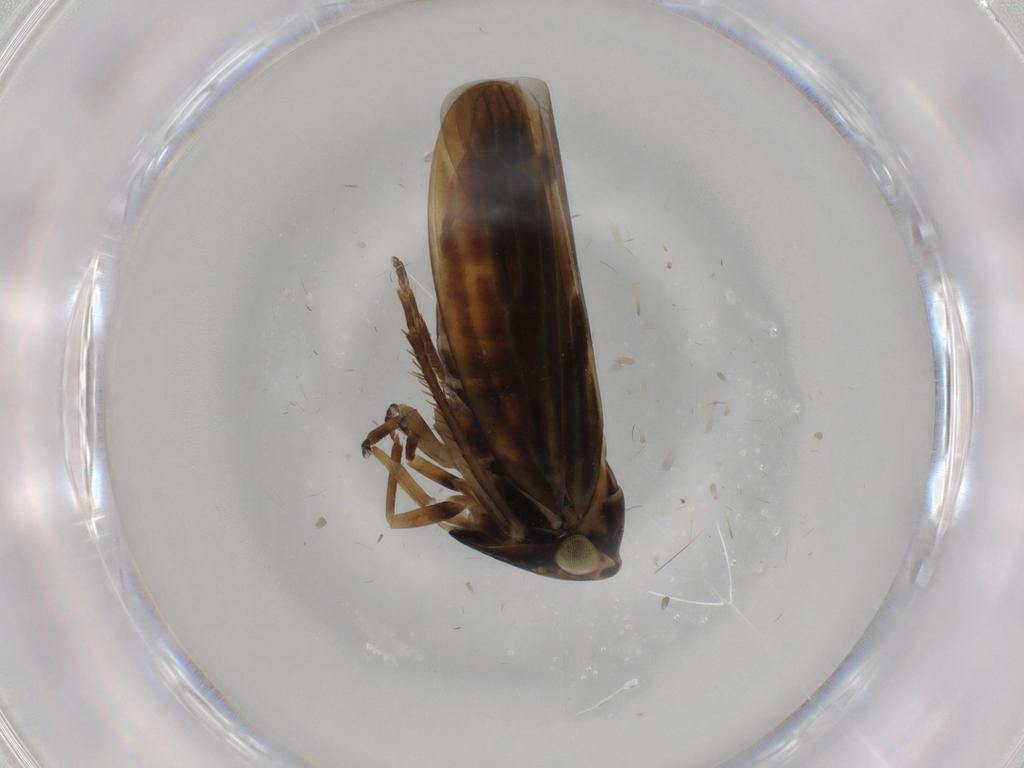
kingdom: Animalia
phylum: Arthropoda
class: Insecta
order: Hemiptera
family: Cicadellidae
